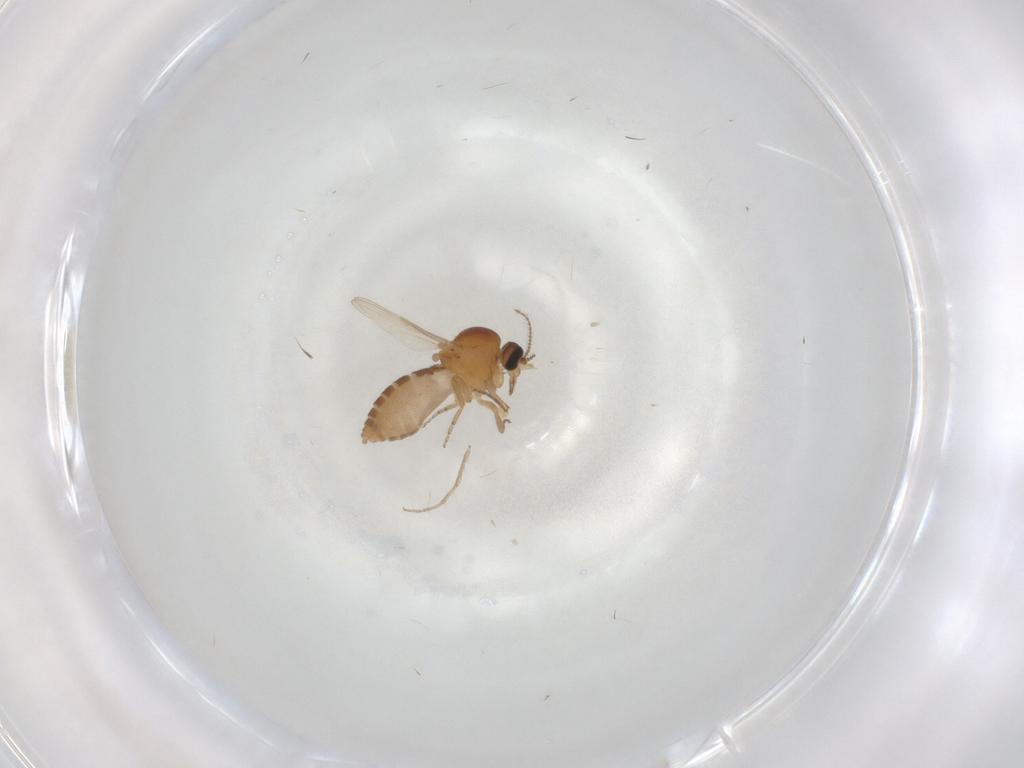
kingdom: Animalia
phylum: Arthropoda
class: Insecta
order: Diptera
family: Ceratopogonidae
